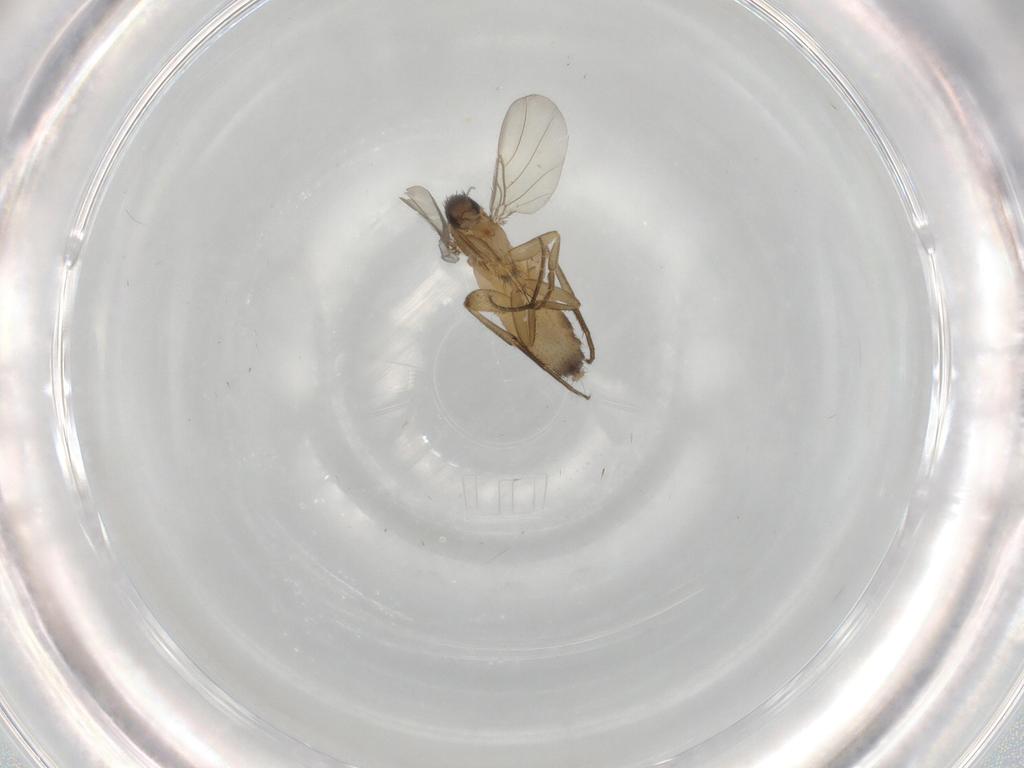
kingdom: Animalia
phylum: Arthropoda
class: Insecta
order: Diptera
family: Phoridae
